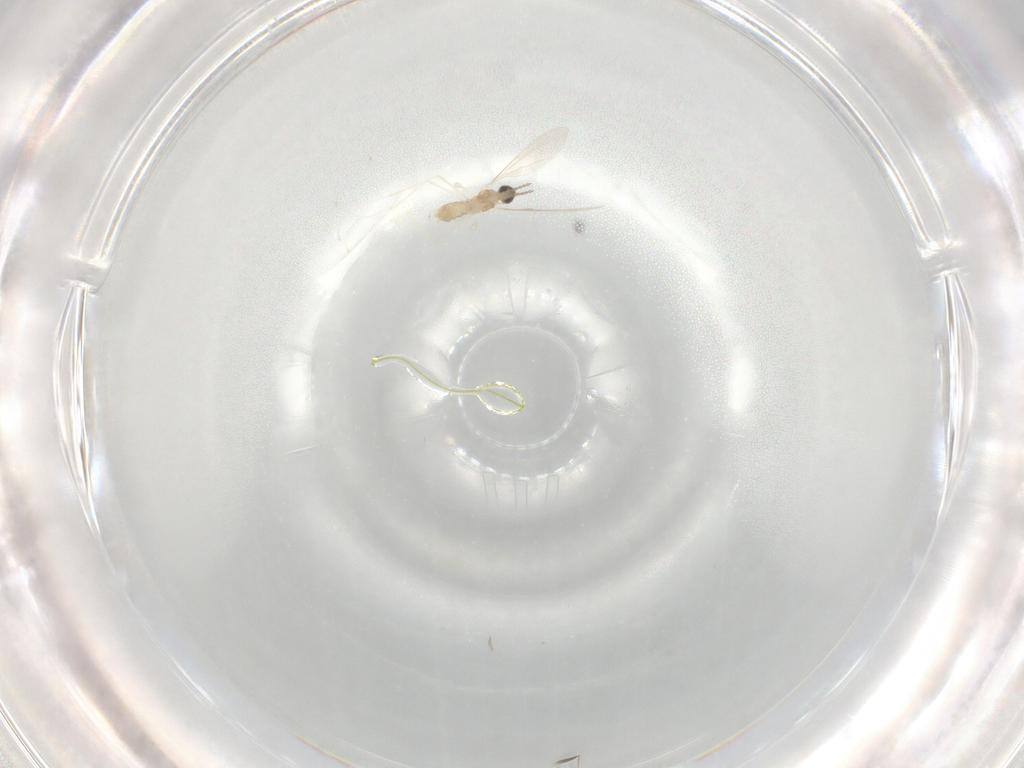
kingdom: Animalia
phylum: Arthropoda
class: Insecta
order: Diptera
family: Cecidomyiidae
